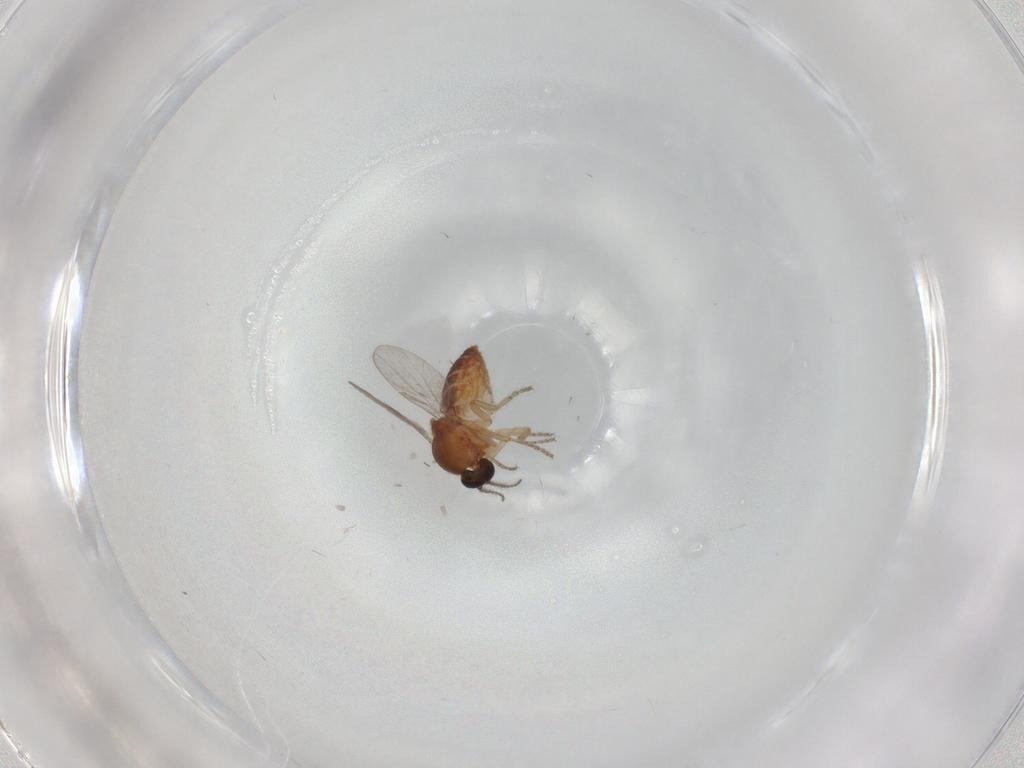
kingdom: Animalia
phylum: Arthropoda
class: Insecta
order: Diptera
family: Ceratopogonidae
